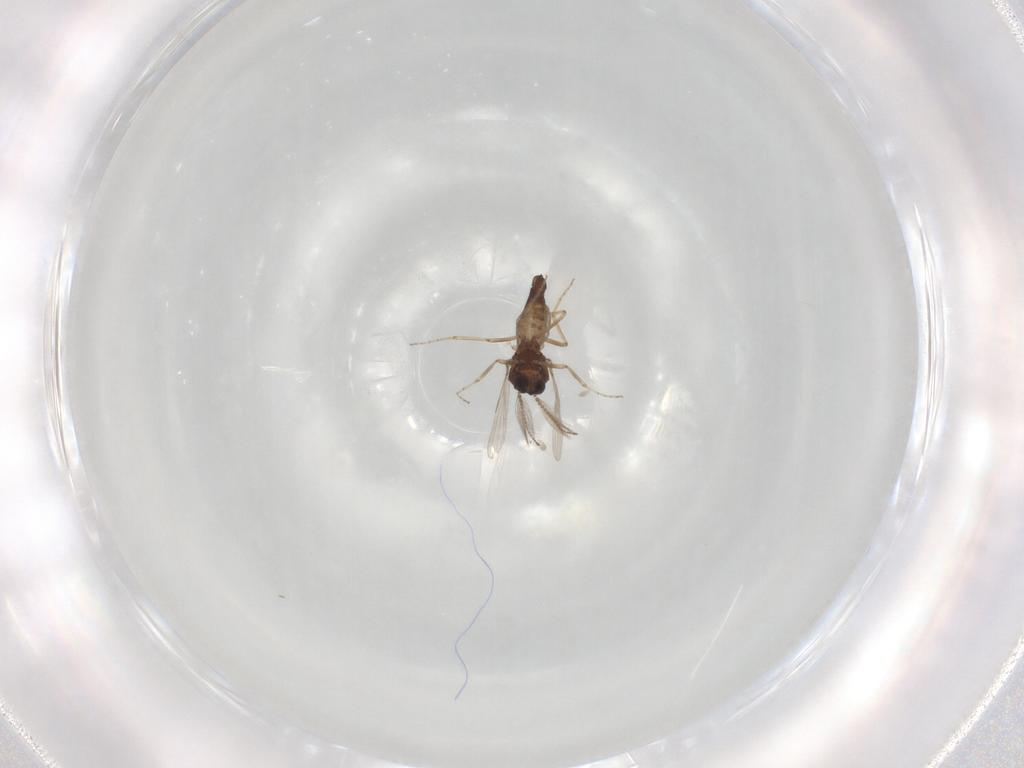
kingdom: Animalia
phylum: Arthropoda
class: Insecta
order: Diptera
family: Ceratopogonidae
